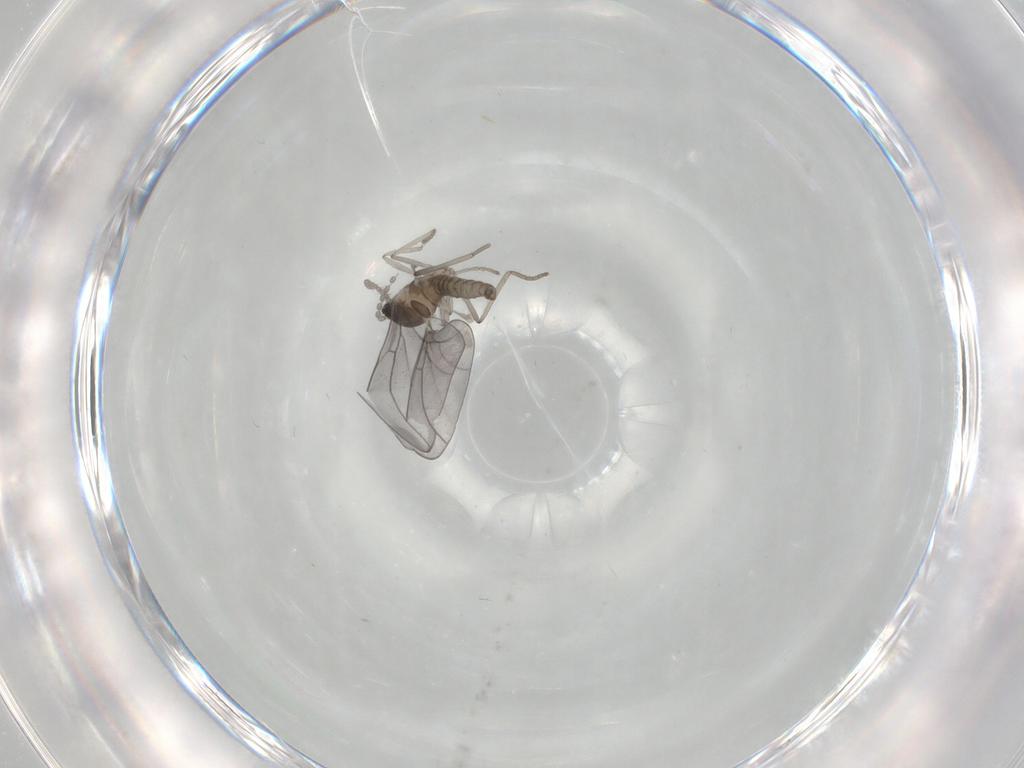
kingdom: Animalia
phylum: Arthropoda
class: Insecta
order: Diptera
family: Cecidomyiidae
